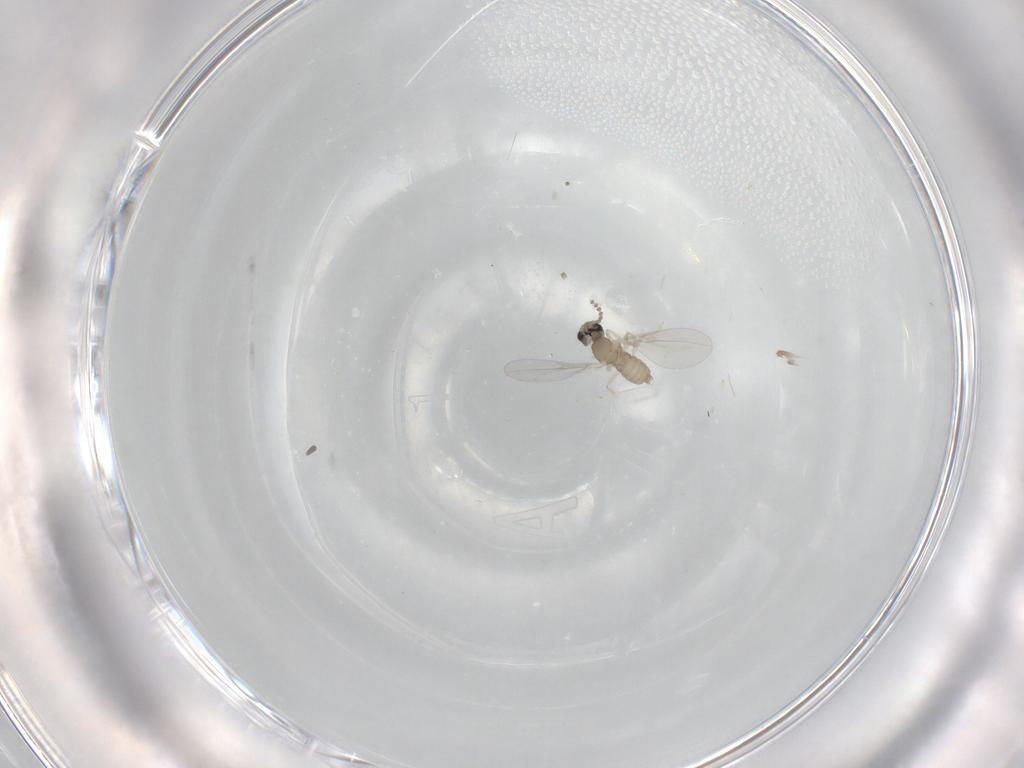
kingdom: Animalia
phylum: Arthropoda
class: Insecta
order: Diptera
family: Cecidomyiidae
